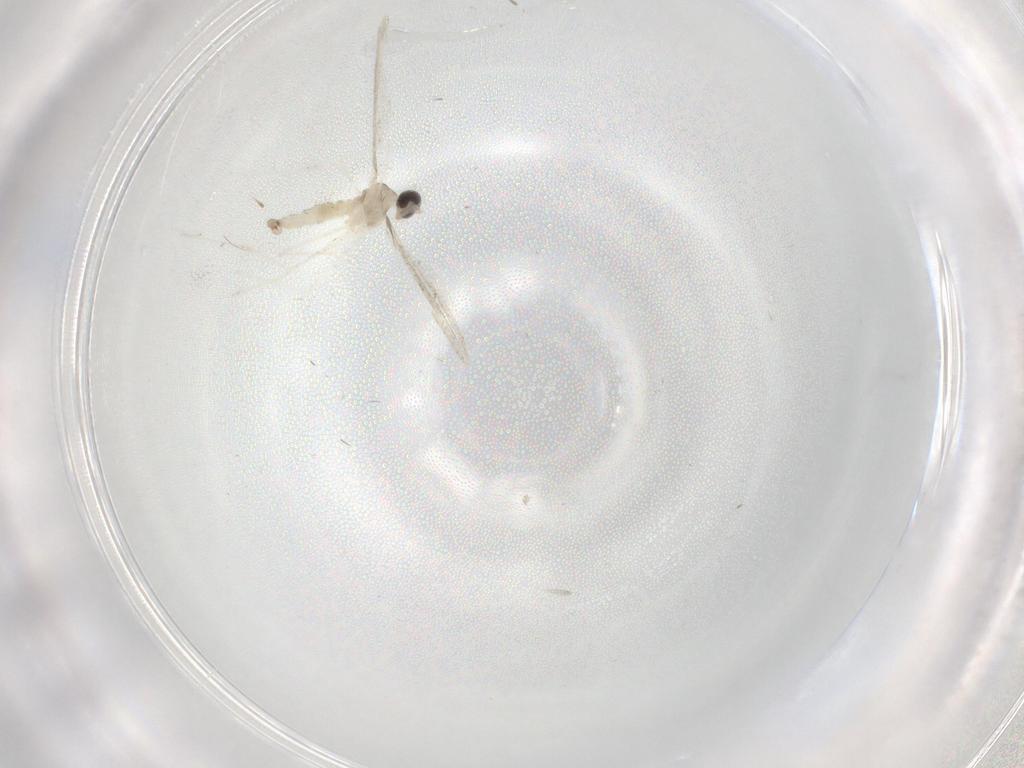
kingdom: Animalia
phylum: Arthropoda
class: Insecta
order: Diptera
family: Cecidomyiidae
